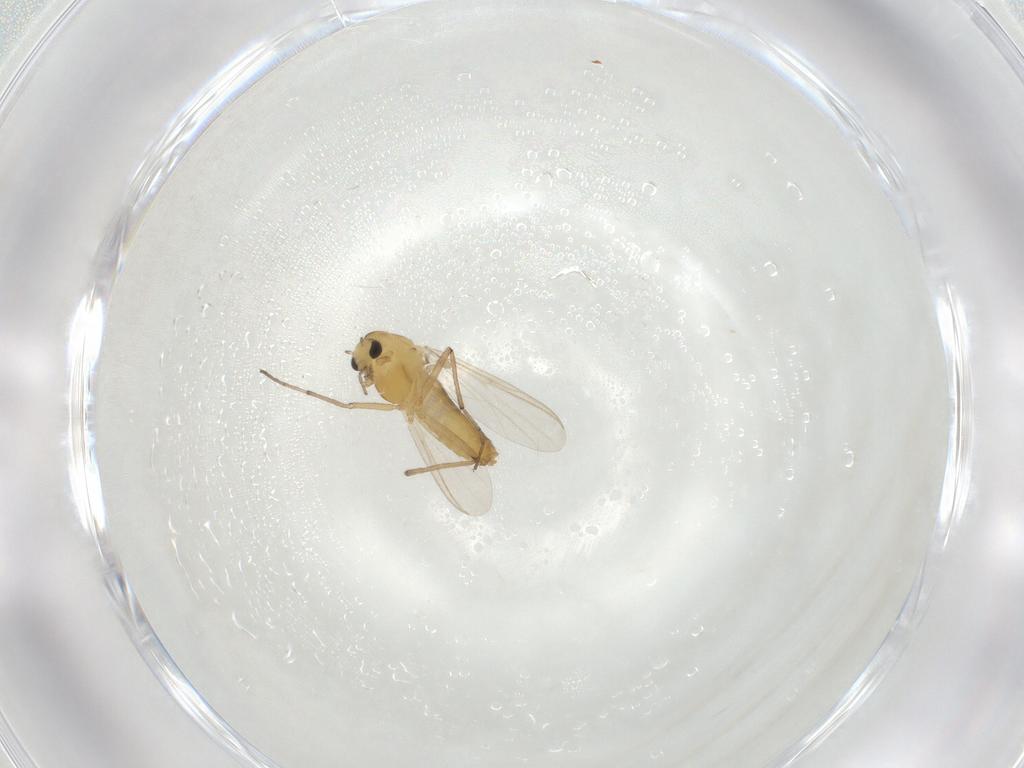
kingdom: Animalia
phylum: Arthropoda
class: Insecta
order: Diptera
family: Chironomidae
